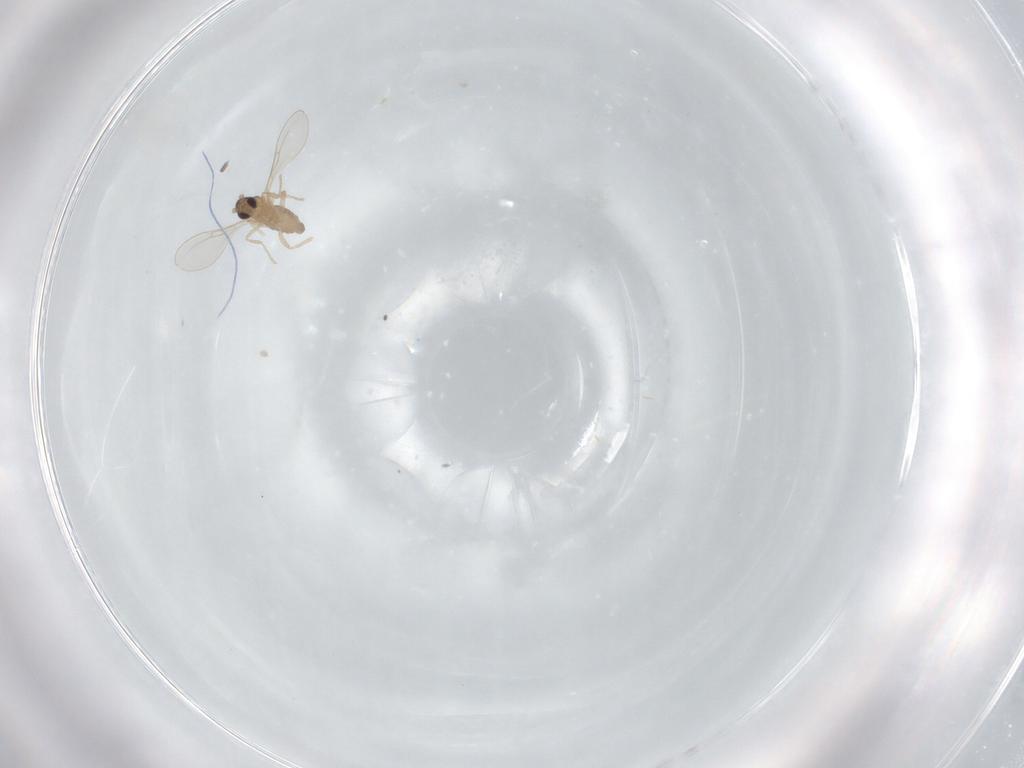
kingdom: Animalia
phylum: Arthropoda
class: Insecta
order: Diptera
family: Cecidomyiidae
